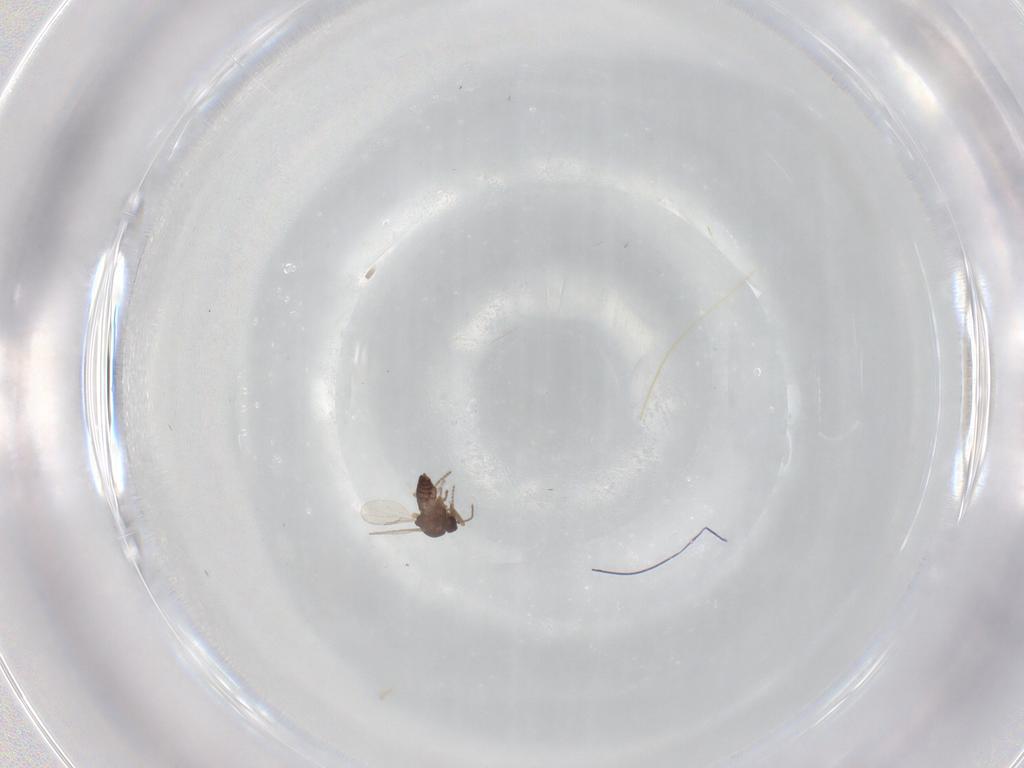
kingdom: Animalia
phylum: Arthropoda
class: Insecta
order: Diptera
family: Ceratopogonidae
